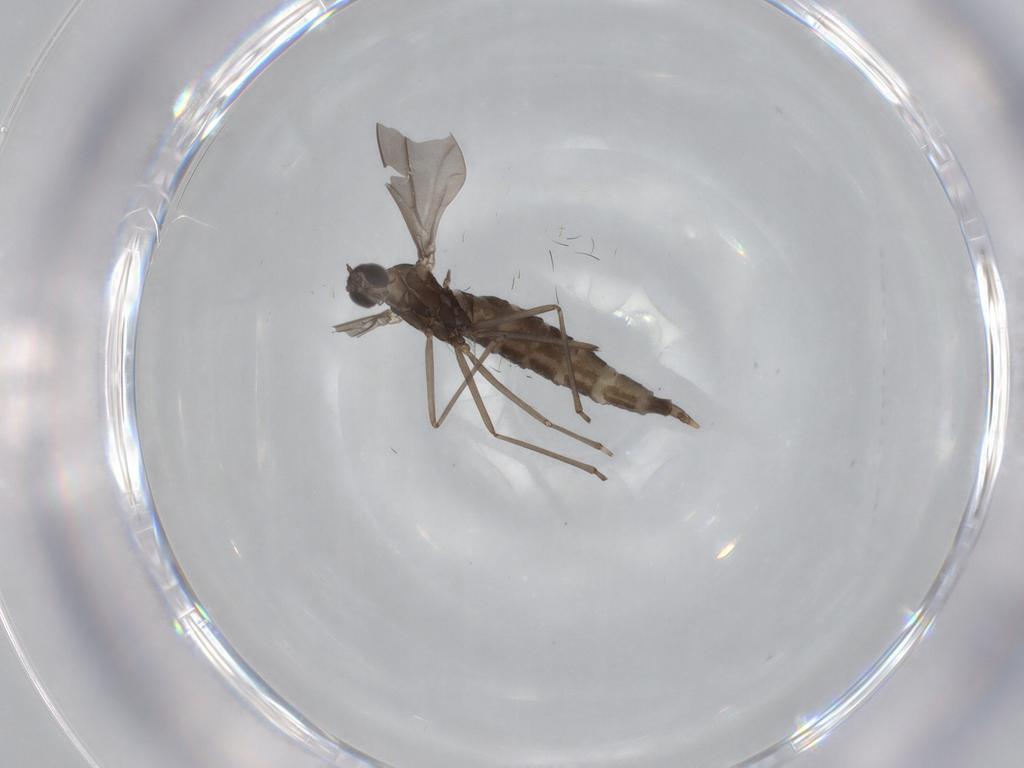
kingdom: Animalia
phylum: Arthropoda
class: Insecta
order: Diptera
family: Cecidomyiidae
